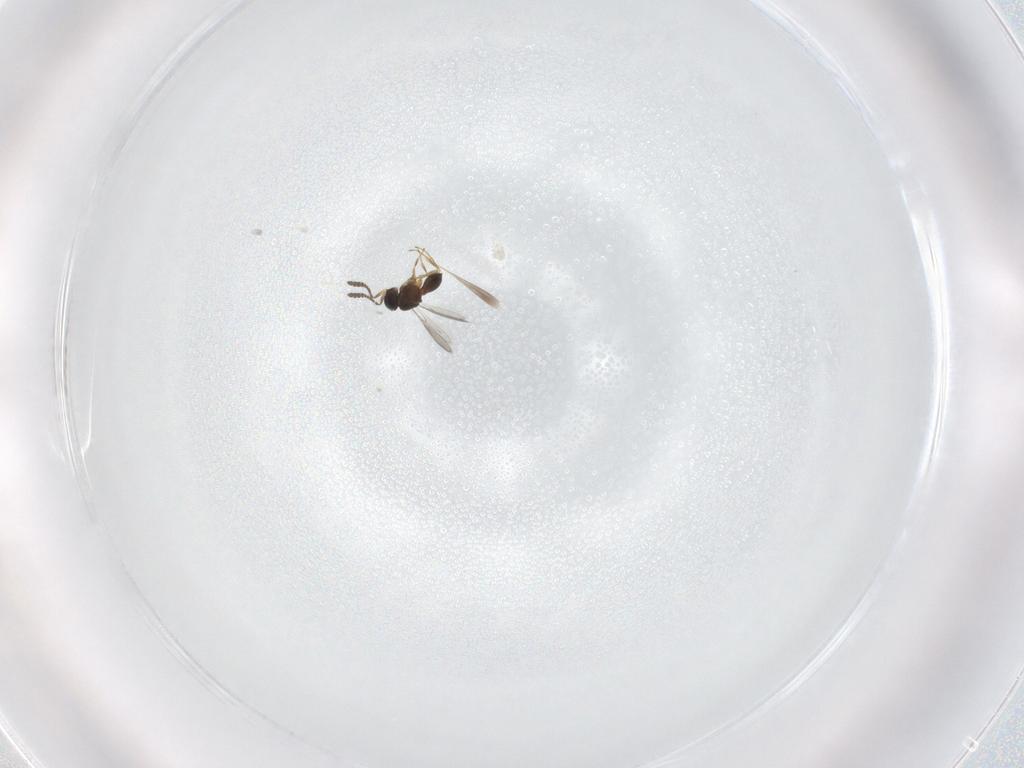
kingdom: Animalia
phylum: Arthropoda
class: Insecta
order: Hymenoptera
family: Scelionidae
